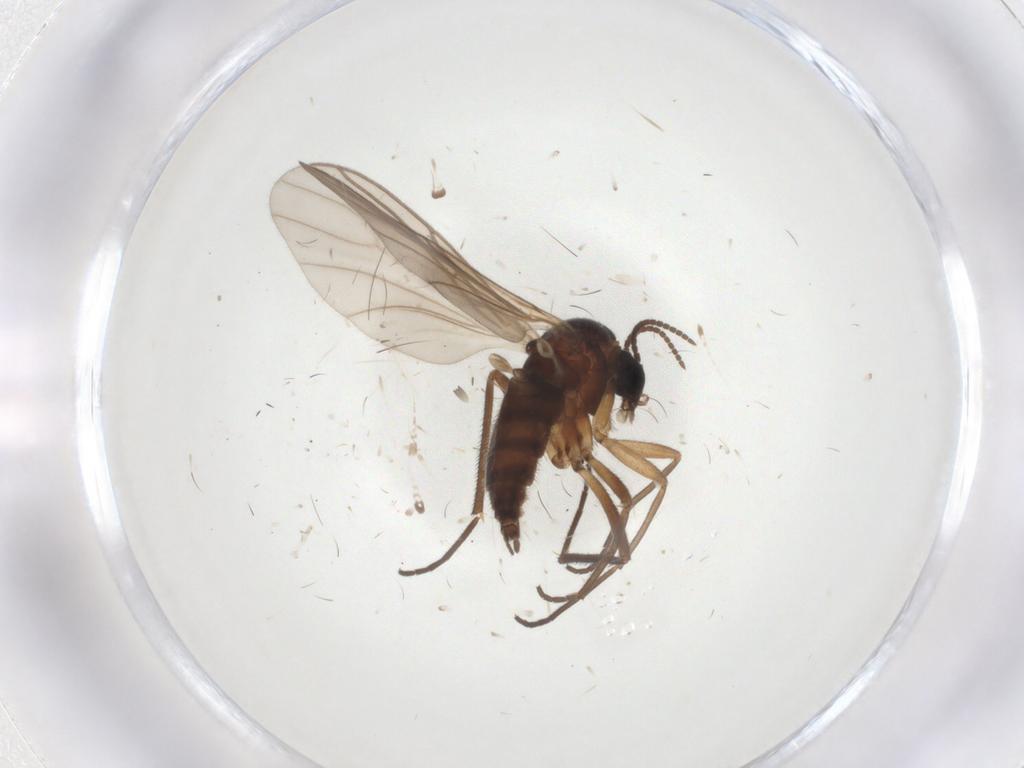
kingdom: Animalia
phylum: Arthropoda
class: Insecta
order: Diptera
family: Sciaridae
